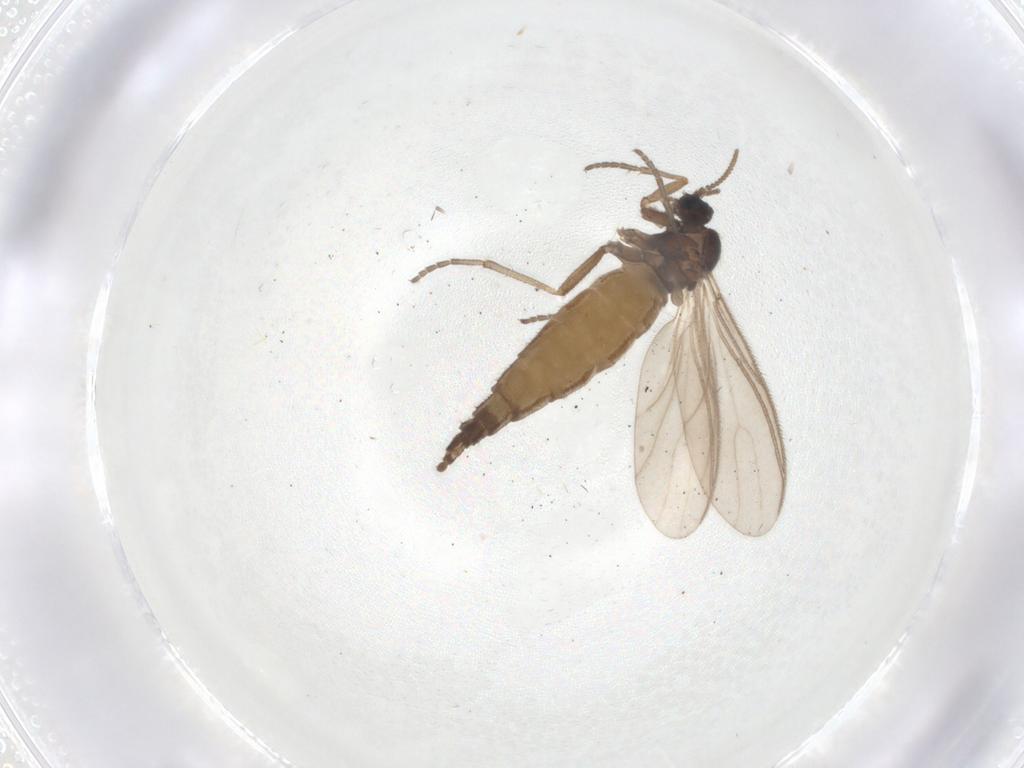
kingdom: Animalia
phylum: Arthropoda
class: Insecta
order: Diptera
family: Sciaridae
